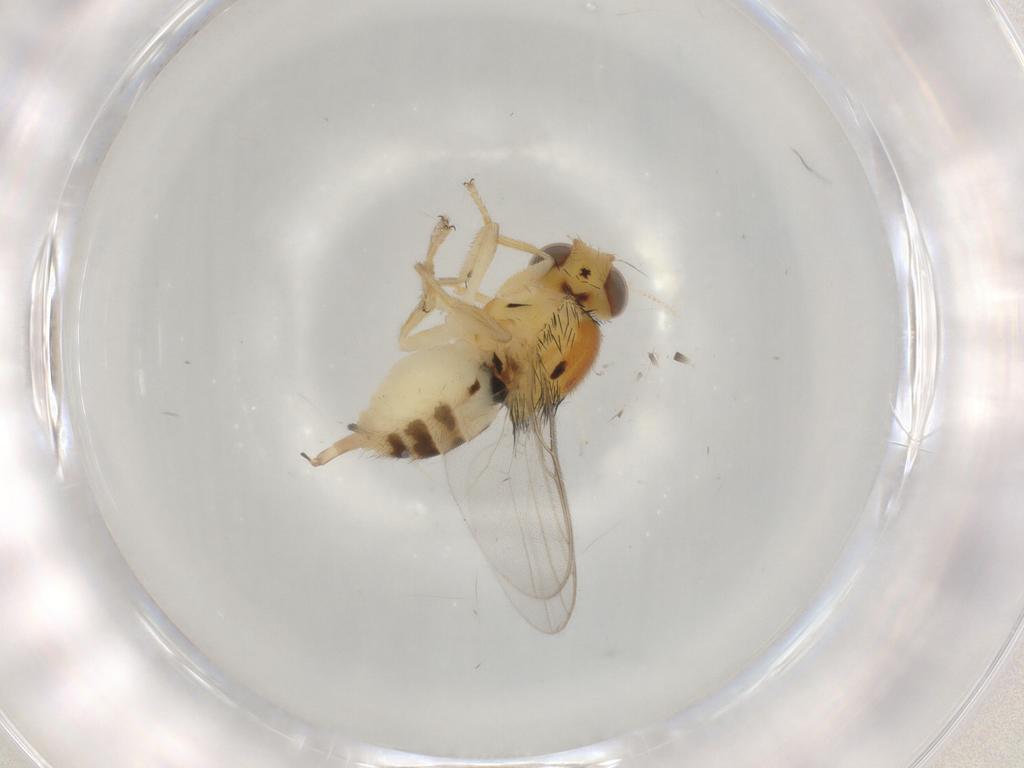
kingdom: Animalia
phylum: Arthropoda
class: Insecta
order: Diptera
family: Chloropidae
